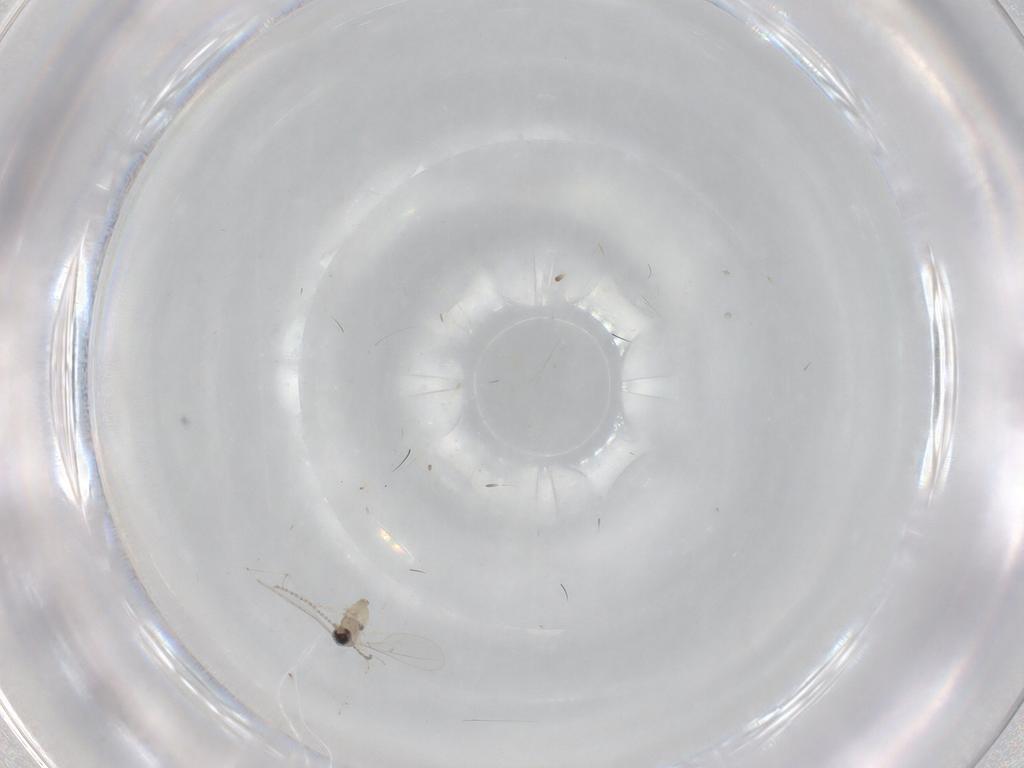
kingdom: Animalia
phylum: Arthropoda
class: Insecta
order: Diptera
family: Cecidomyiidae
